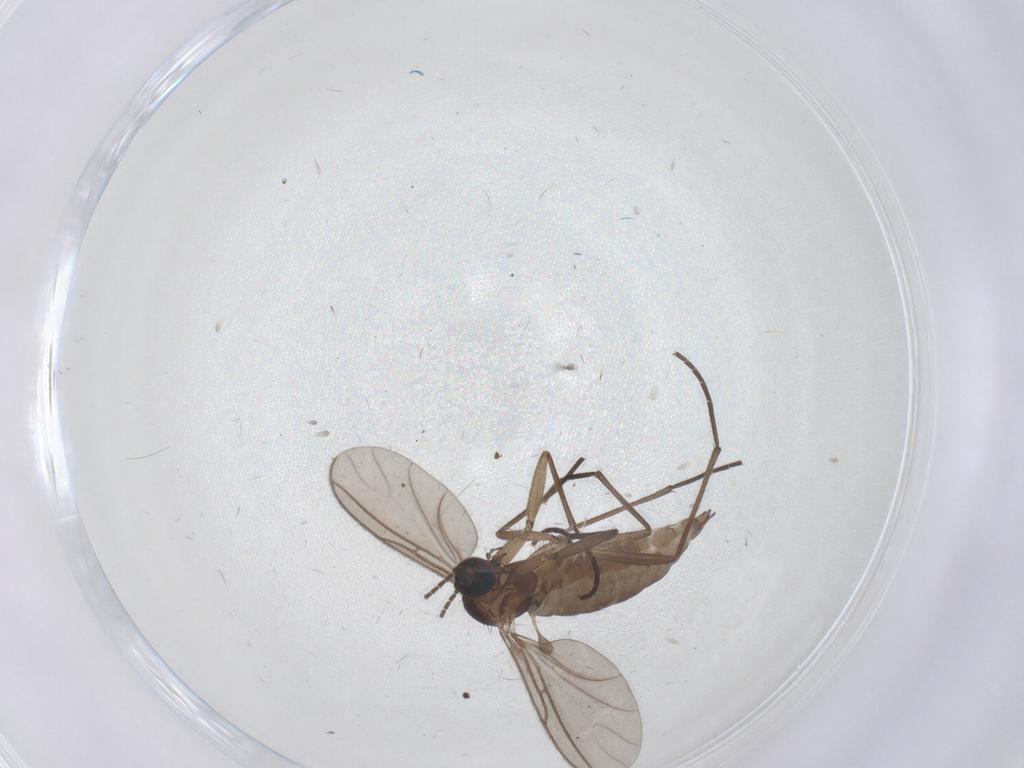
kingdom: Animalia
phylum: Arthropoda
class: Insecta
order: Diptera
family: Sciaridae
